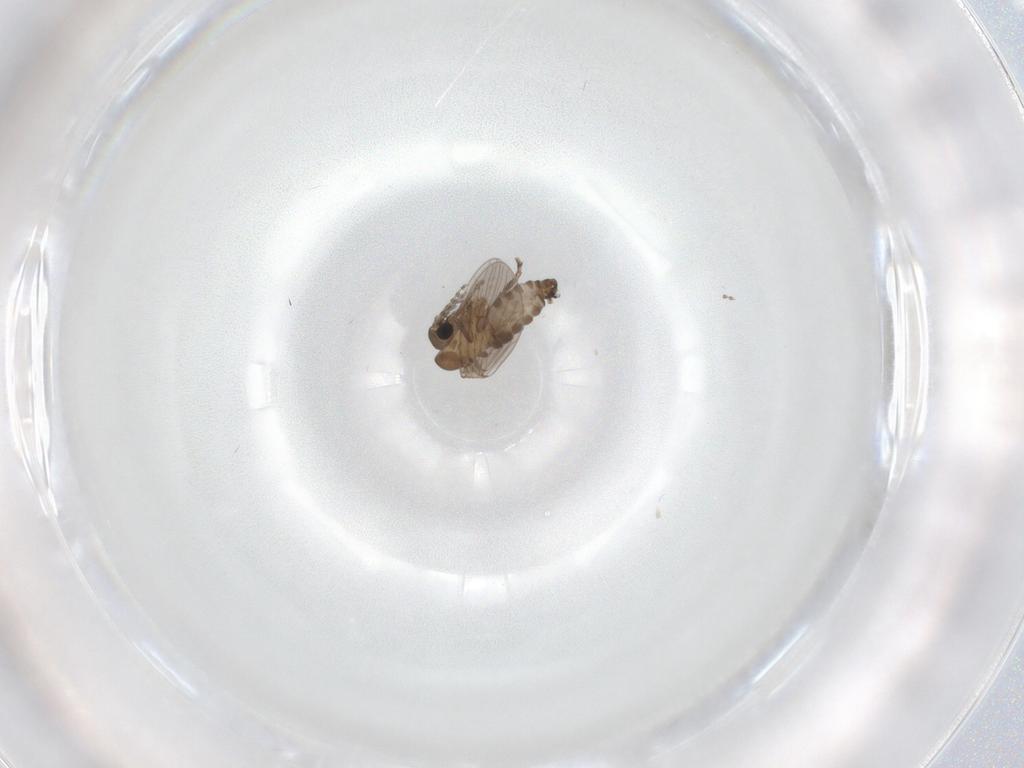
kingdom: Animalia
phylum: Arthropoda
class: Insecta
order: Diptera
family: Psychodidae
